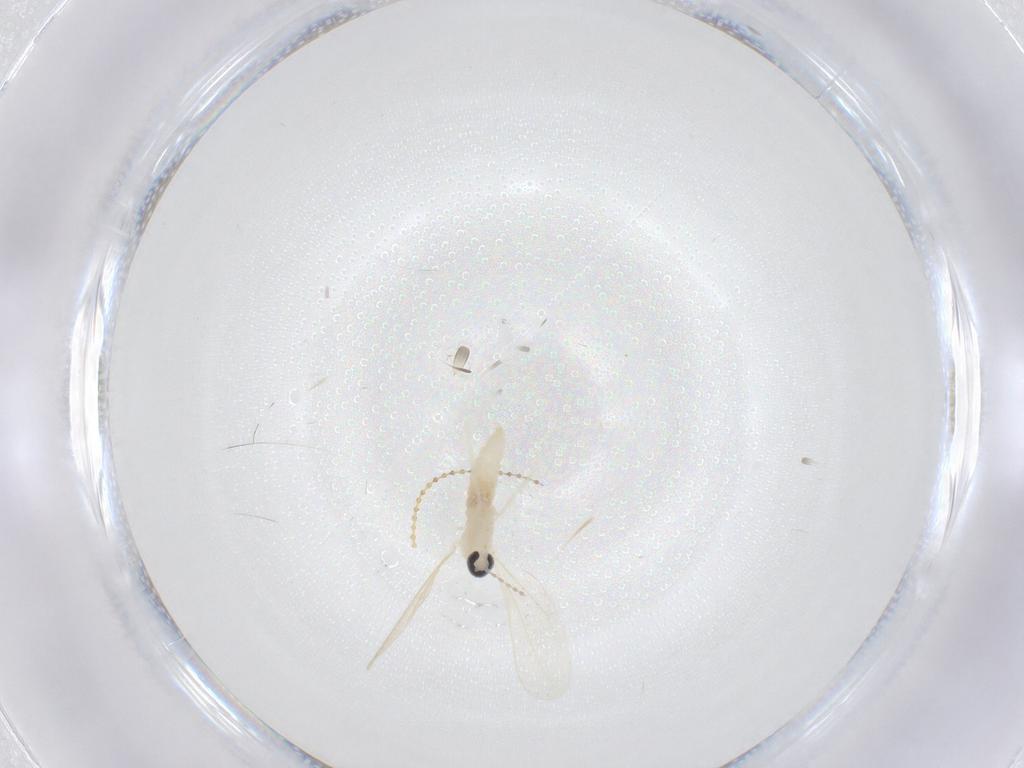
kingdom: Animalia
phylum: Arthropoda
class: Insecta
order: Diptera
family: Cecidomyiidae
